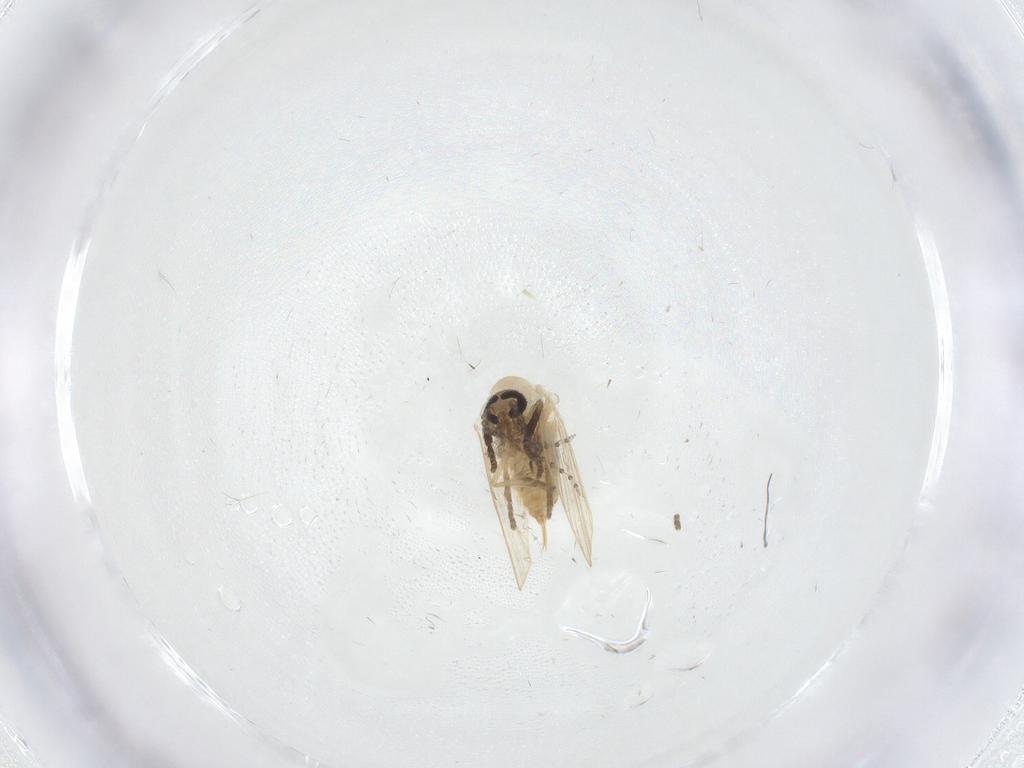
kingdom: Animalia
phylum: Arthropoda
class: Insecta
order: Diptera
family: Psychodidae
